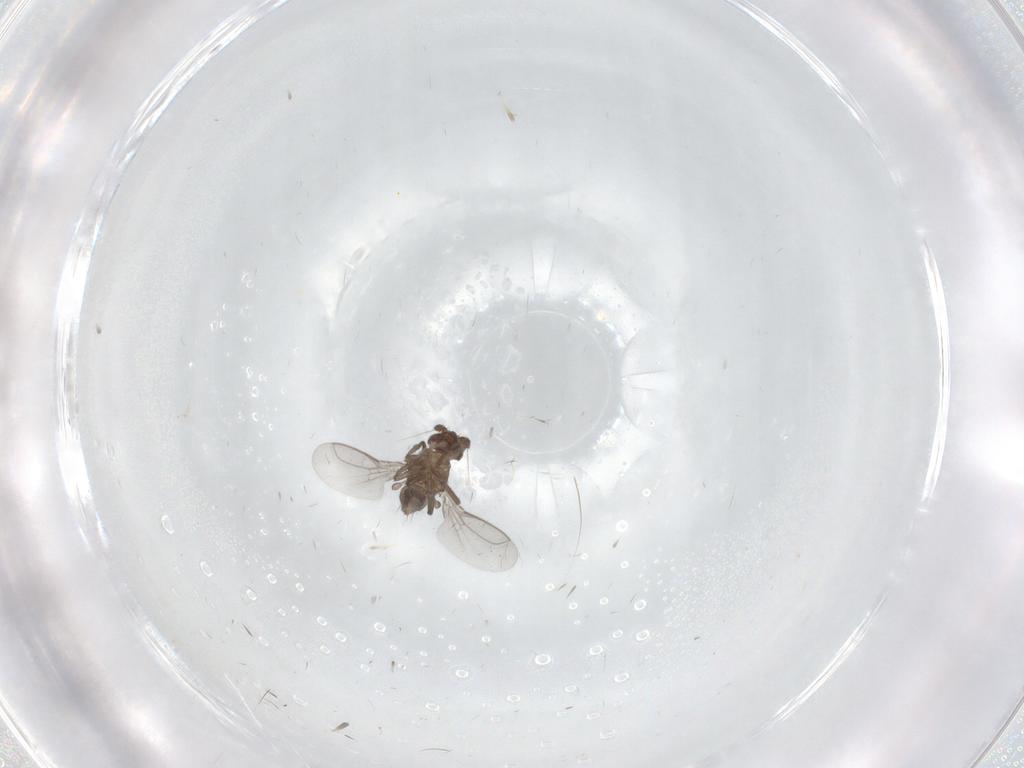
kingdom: Animalia
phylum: Arthropoda
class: Insecta
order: Diptera
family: Sphaeroceridae
